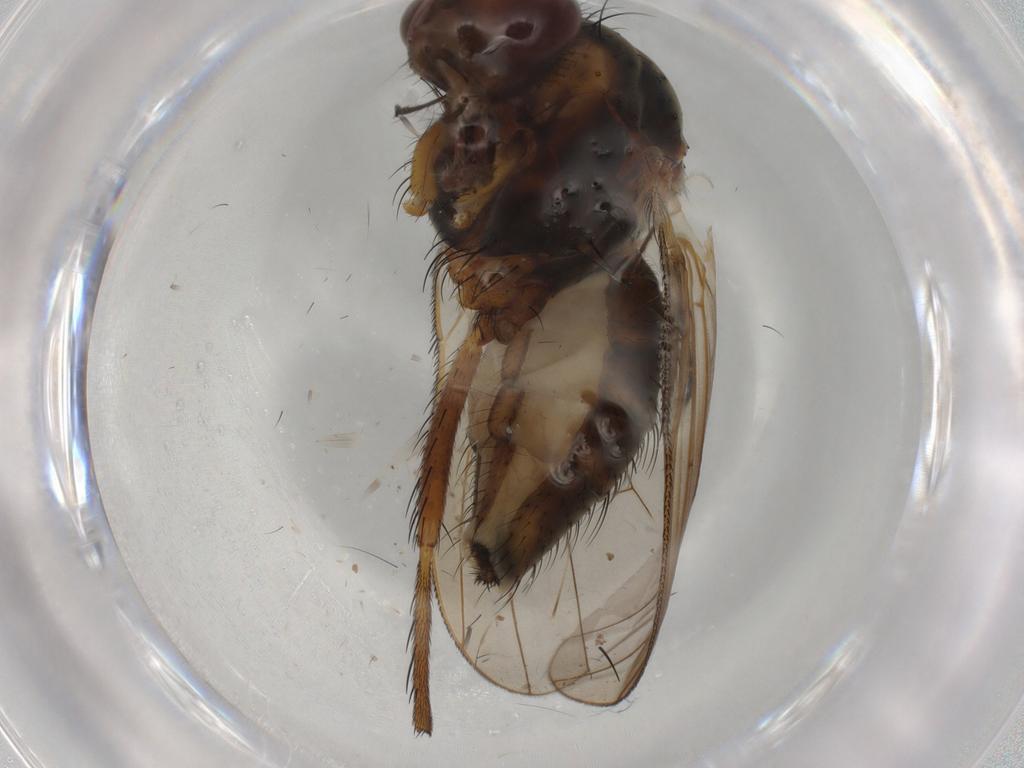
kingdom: Animalia
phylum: Arthropoda
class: Insecta
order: Diptera
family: Anthomyiidae
